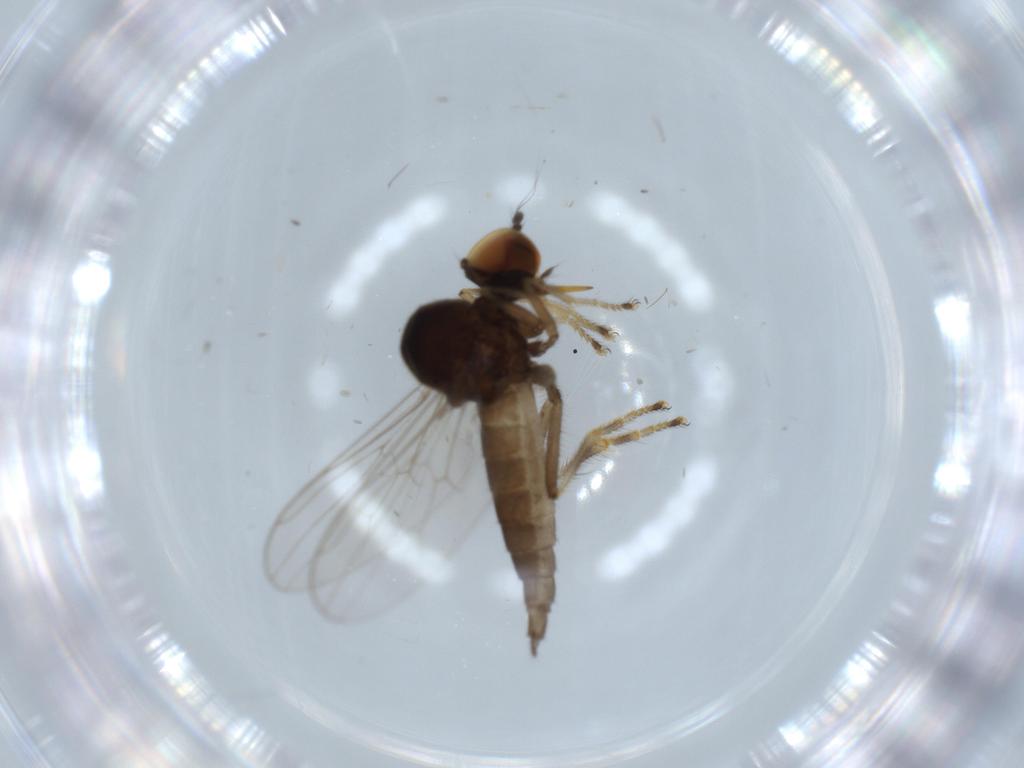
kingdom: Animalia
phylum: Arthropoda
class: Insecta
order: Diptera
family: Hybotidae
